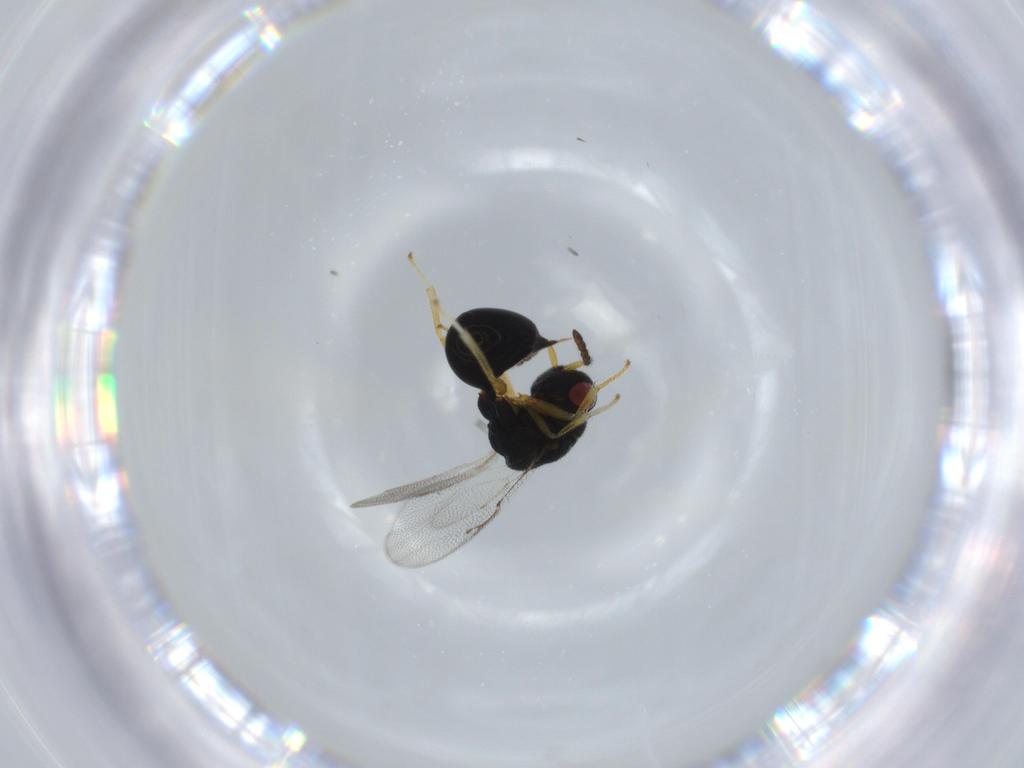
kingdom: Animalia
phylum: Arthropoda
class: Insecta
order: Hymenoptera
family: Eurytomidae
